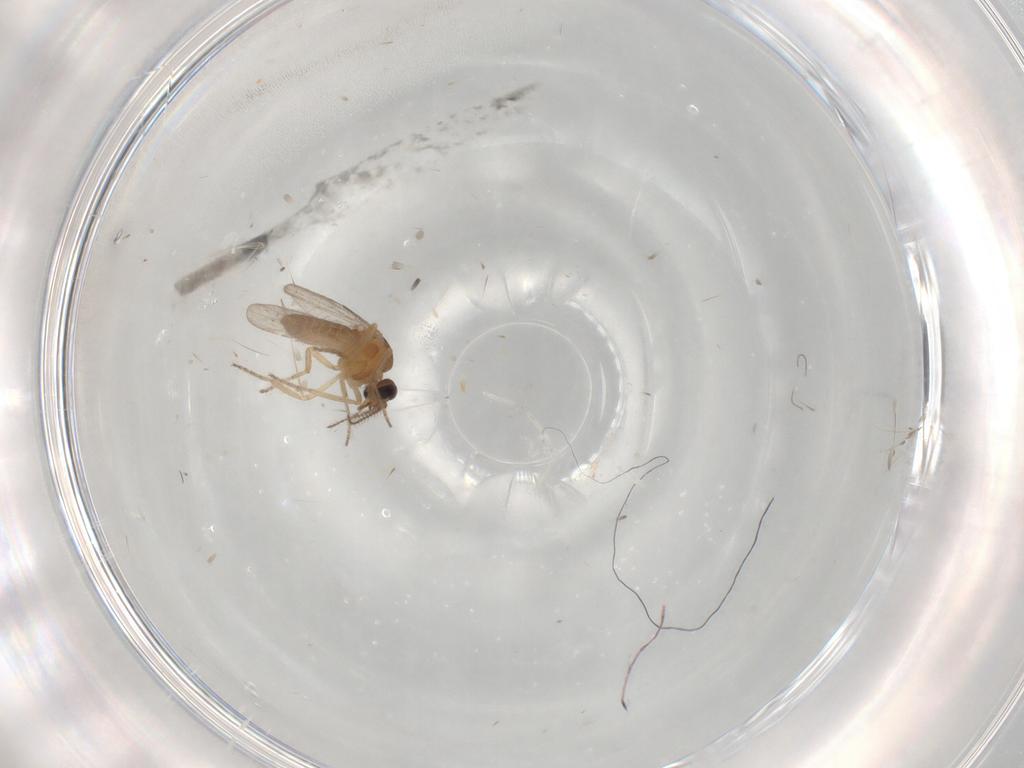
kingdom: Animalia
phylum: Arthropoda
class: Insecta
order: Diptera
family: Ceratopogonidae
